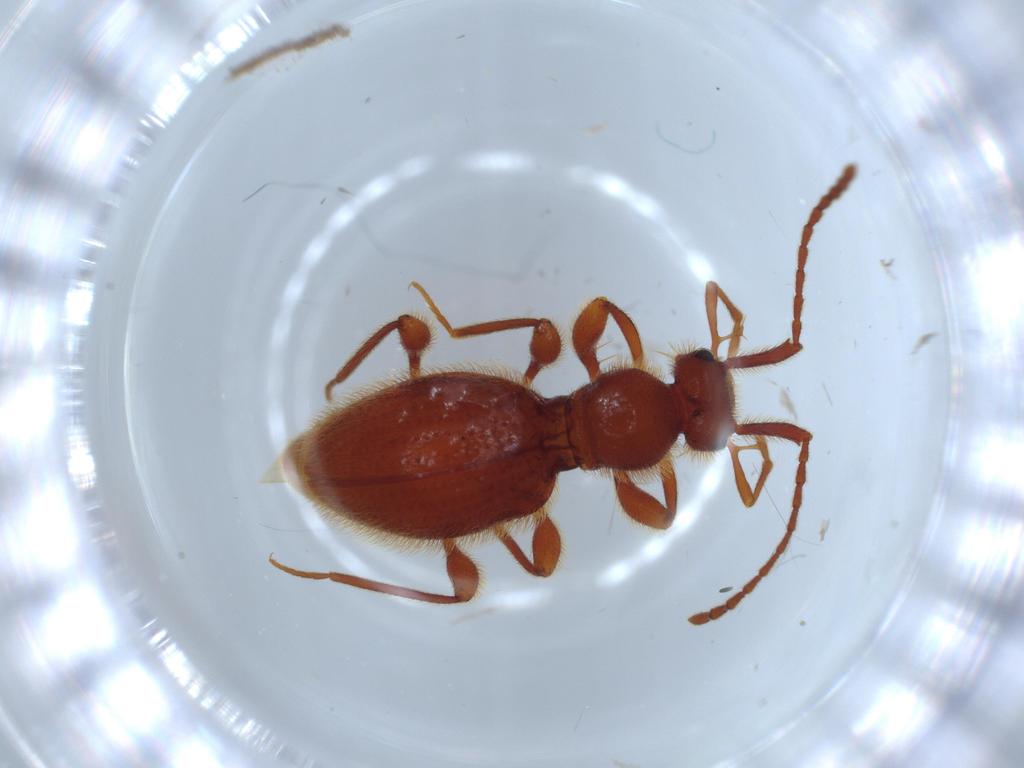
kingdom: Animalia
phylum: Arthropoda
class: Insecta
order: Coleoptera
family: Staphylinidae
